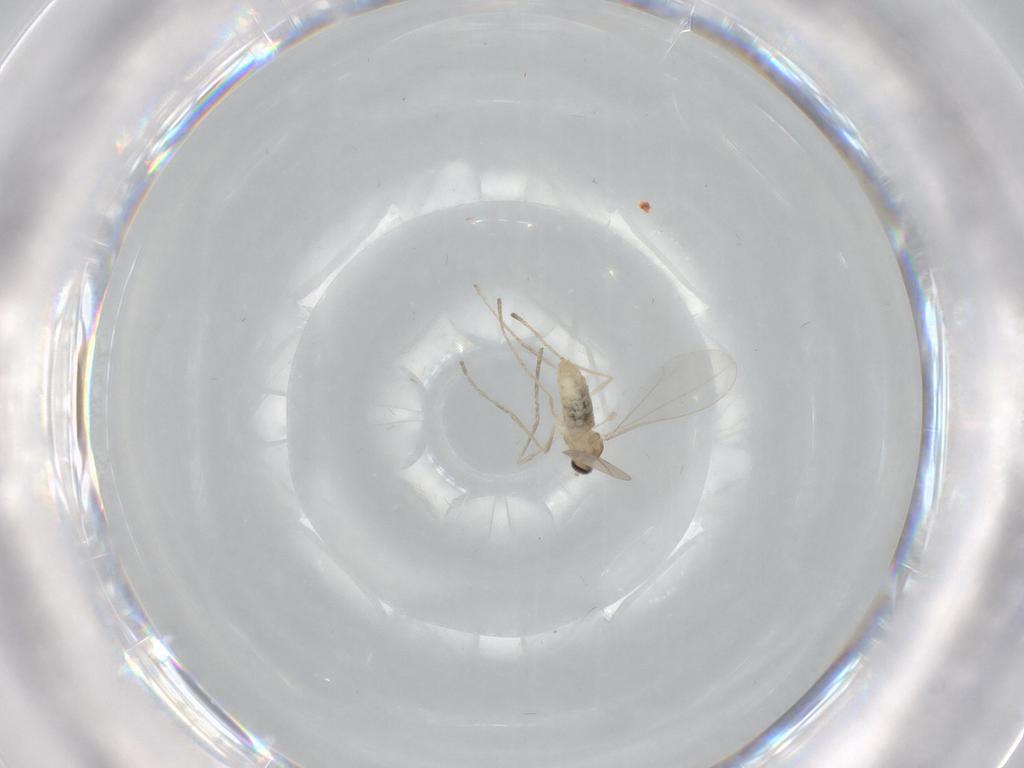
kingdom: Animalia
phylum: Arthropoda
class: Insecta
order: Diptera
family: Cecidomyiidae
